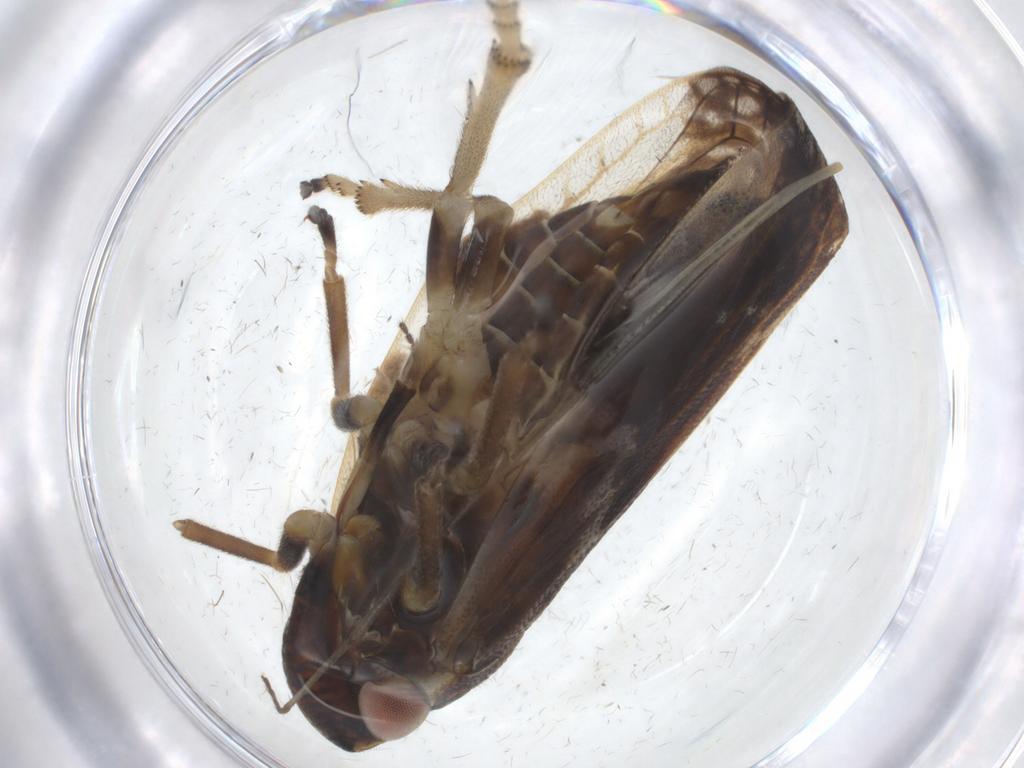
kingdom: Animalia
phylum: Arthropoda
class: Insecta
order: Hemiptera
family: Aphrophoridae
